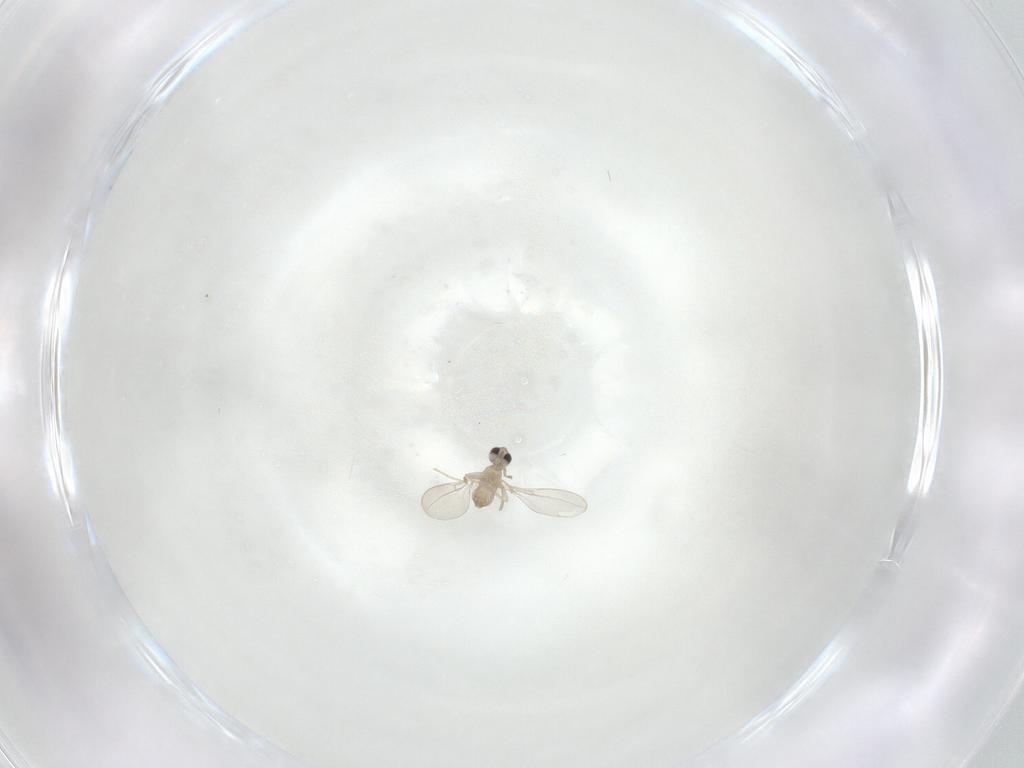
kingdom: Animalia
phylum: Arthropoda
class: Insecta
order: Diptera
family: Cecidomyiidae
